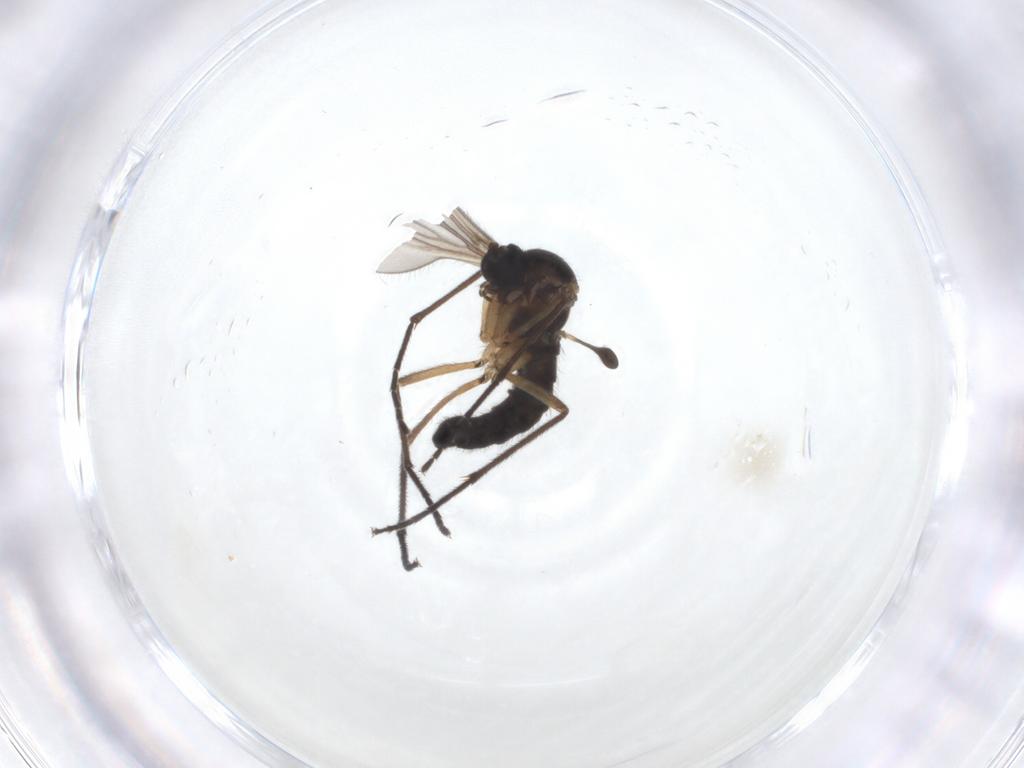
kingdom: Animalia
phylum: Arthropoda
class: Insecta
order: Diptera
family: Sciaridae
